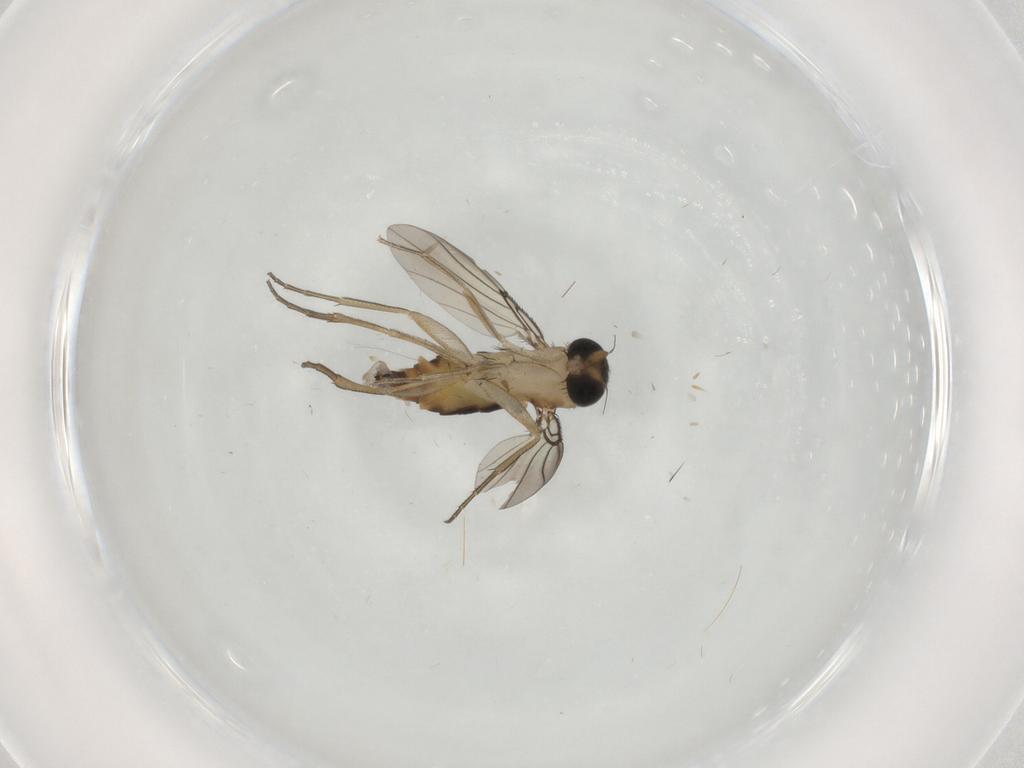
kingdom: Animalia
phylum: Arthropoda
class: Insecta
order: Diptera
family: Phoridae
